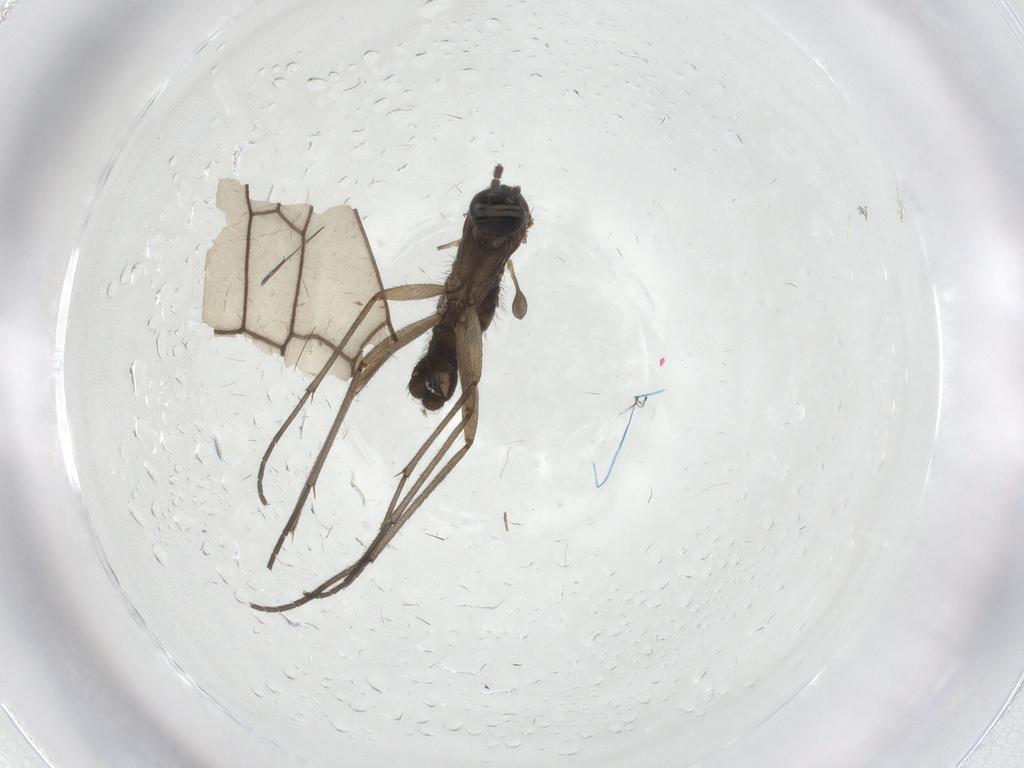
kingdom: Animalia
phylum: Arthropoda
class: Insecta
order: Diptera
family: Sciaridae
